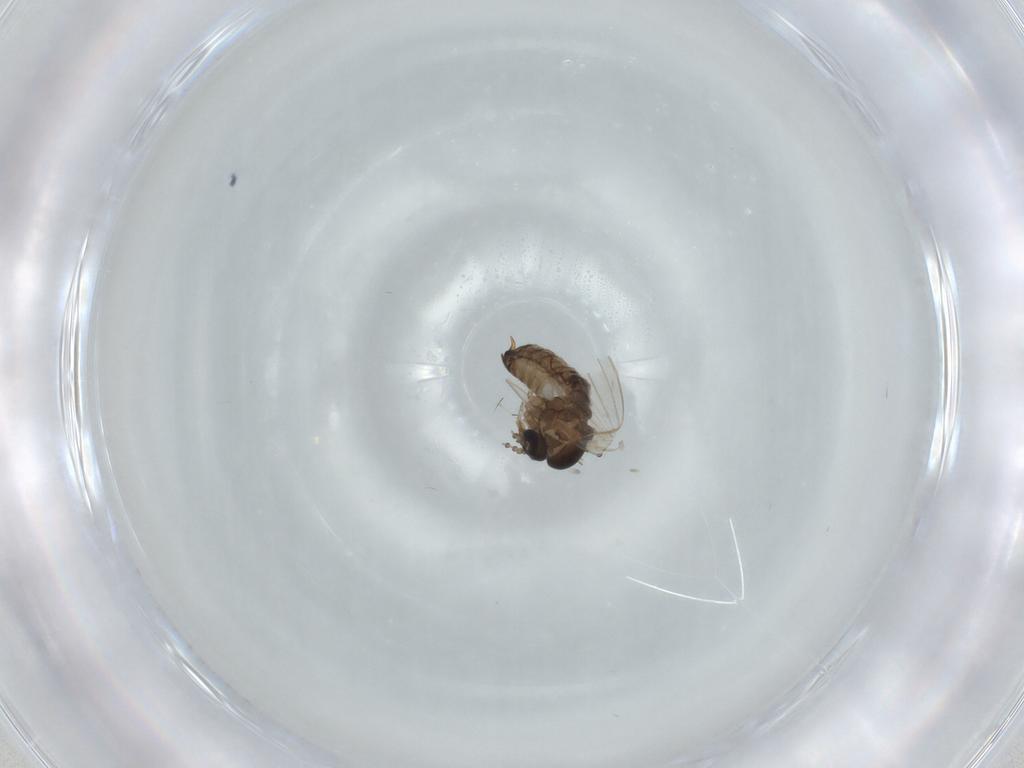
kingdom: Animalia
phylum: Arthropoda
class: Insecta
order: Diptera
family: Psychodidae
